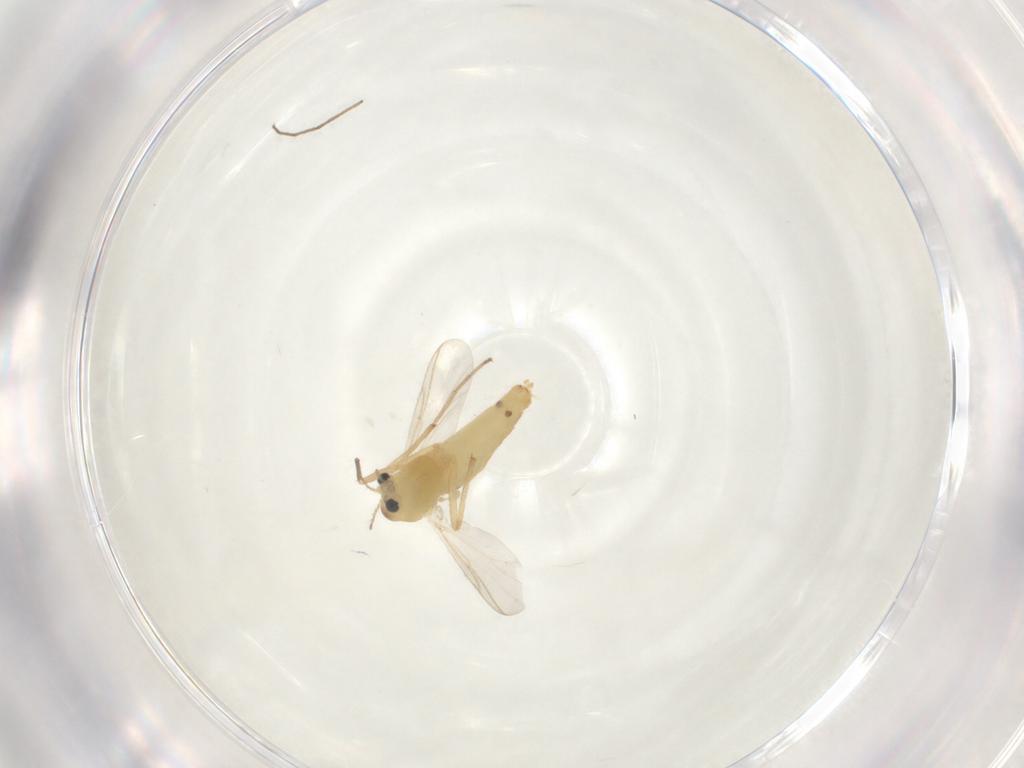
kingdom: Animalia
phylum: Arthropoda
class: Insecta
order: Diptera
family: Chironomidae
